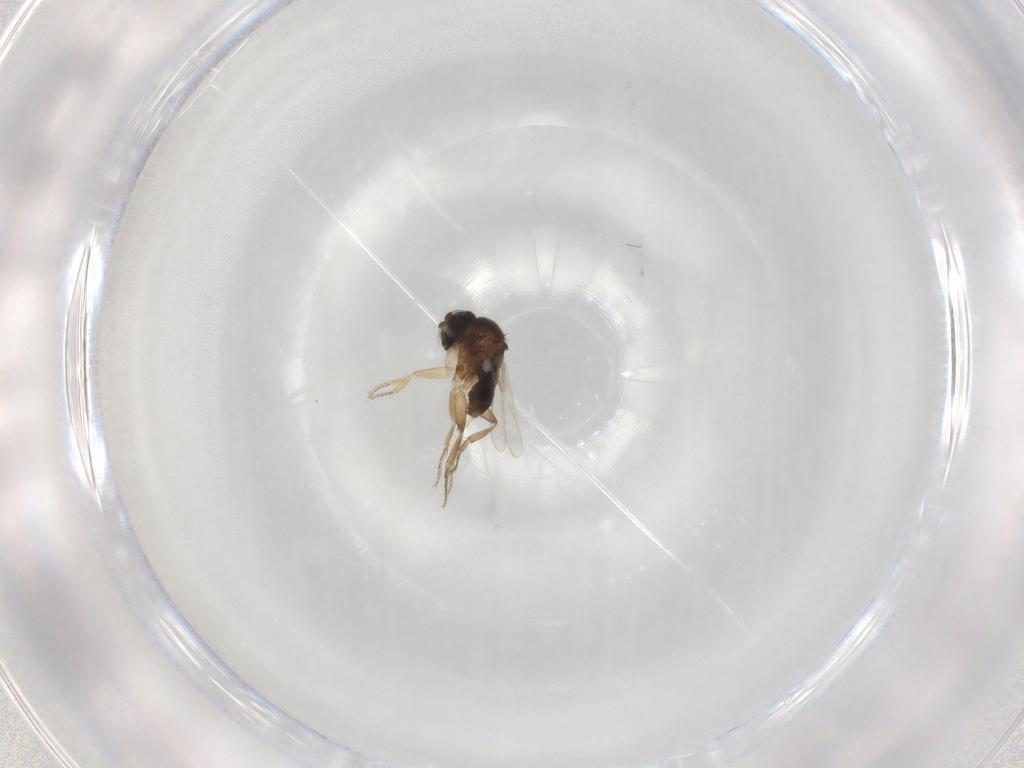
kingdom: Animalia
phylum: Arthropoda
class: Insecta
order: Diptera
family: Phoridae
